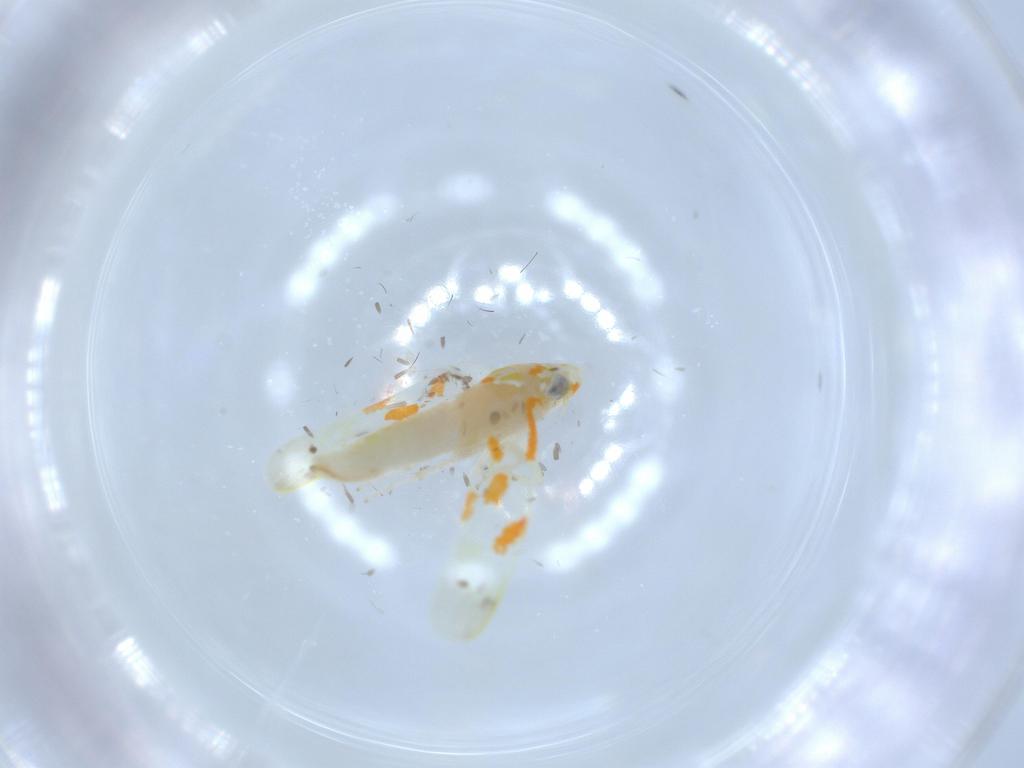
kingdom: Animalia
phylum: Arthropoda
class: Insecta
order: Hemiptera
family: Cicadellidae
